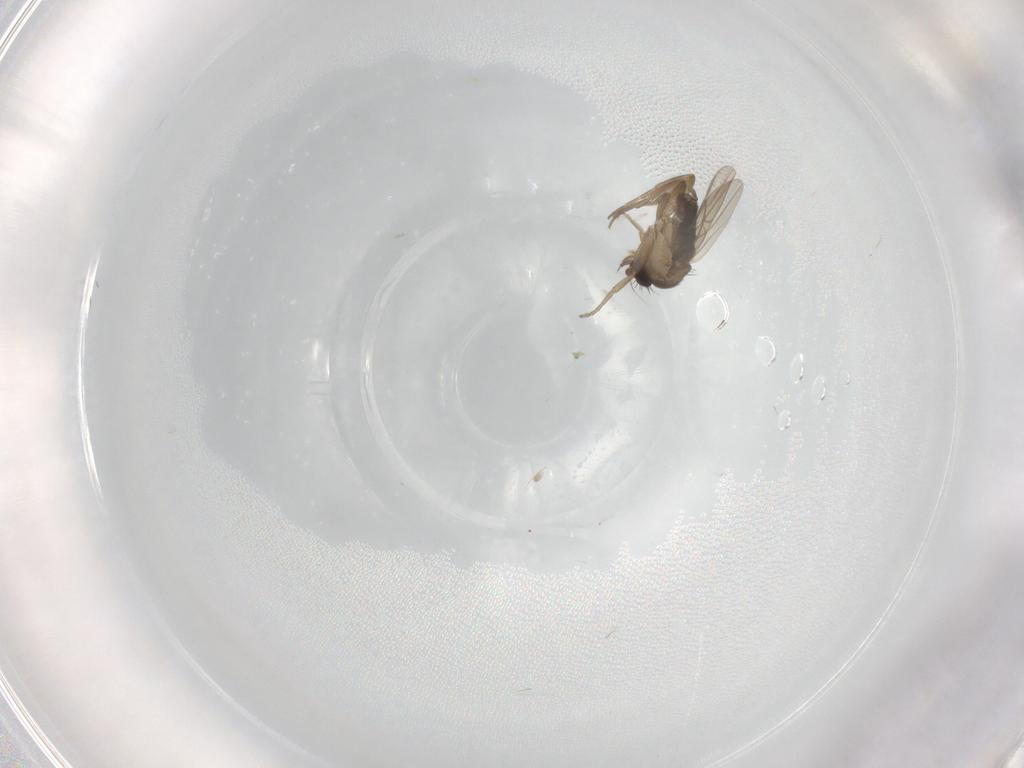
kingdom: Animalia
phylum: Arthropoda
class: Insecta
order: Diptera
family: Phoridae
